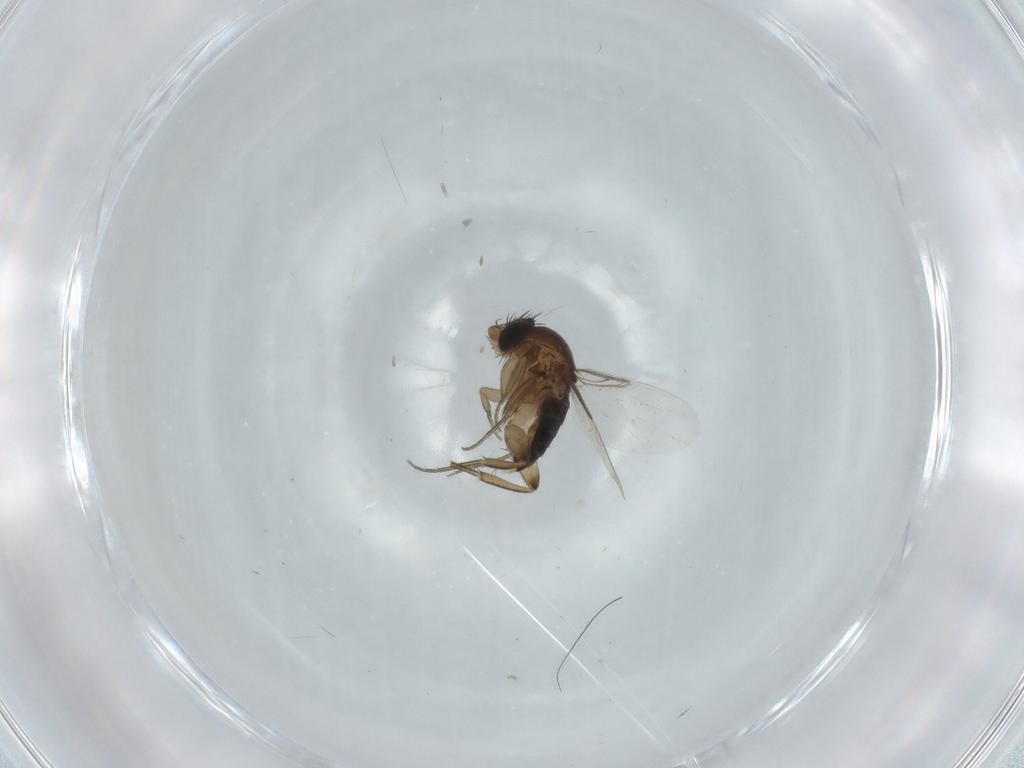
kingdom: Animalia
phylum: Arthropoda
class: Insecta
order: Diptera
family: Phoridae
